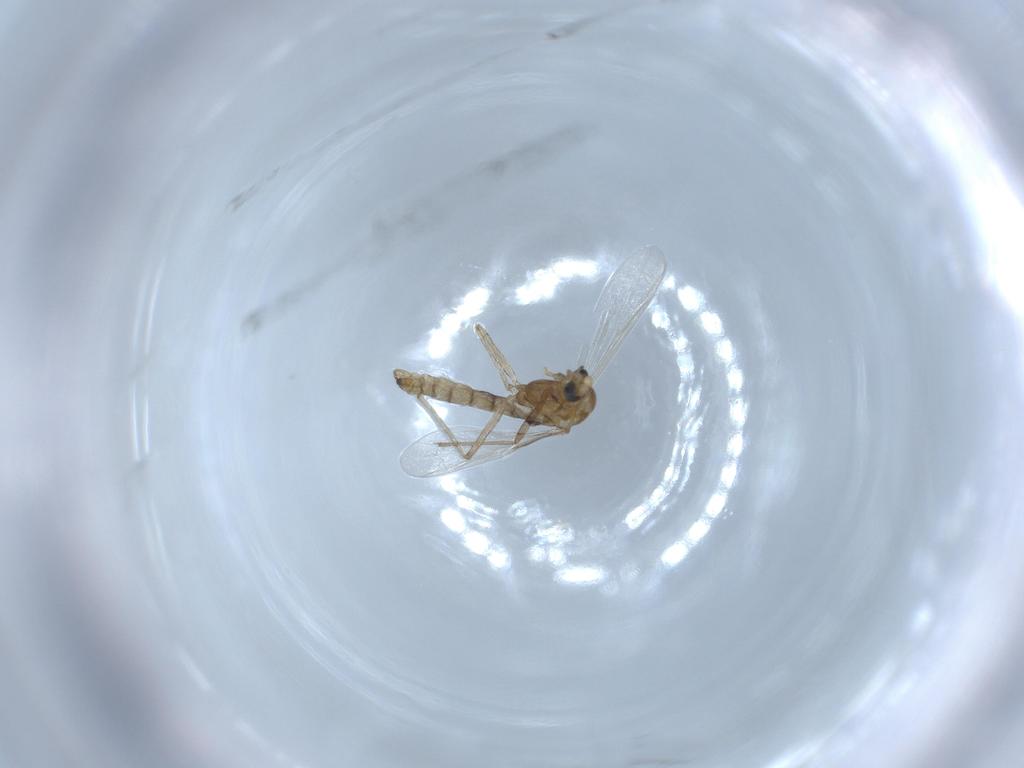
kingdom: Animalia
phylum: Arthropoda
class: Insecta
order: Diptera
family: Chironomidae
